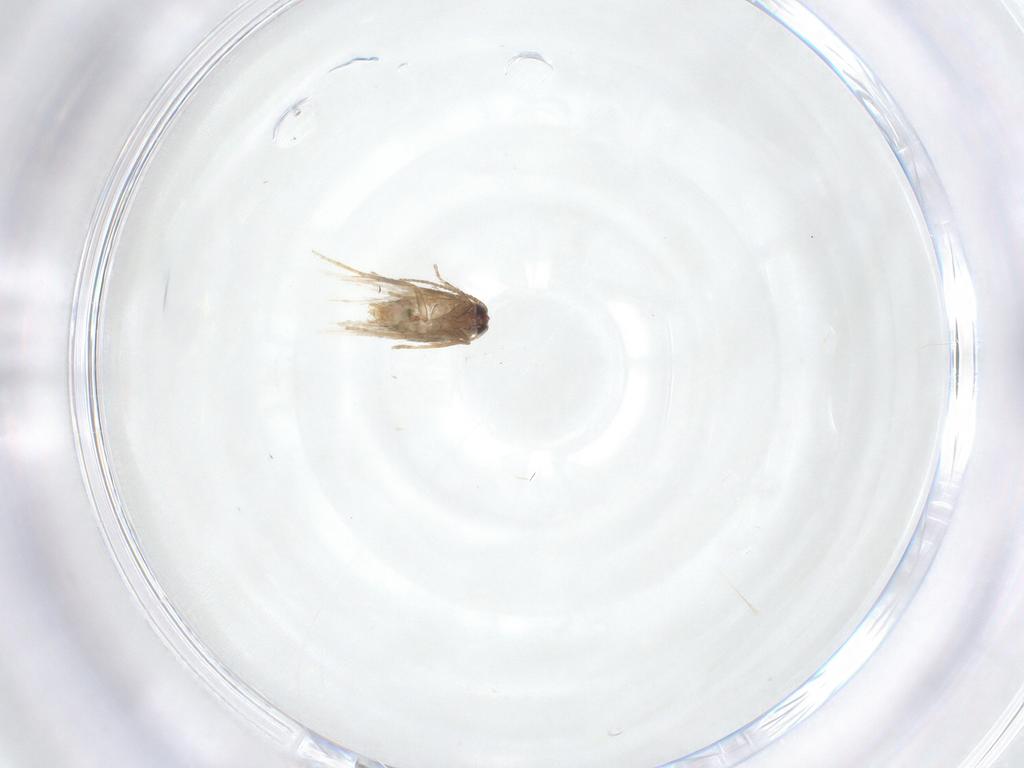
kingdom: Animalia
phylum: Arthropoda
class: Insecta
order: Lepidoptera
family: Nepticulidae
